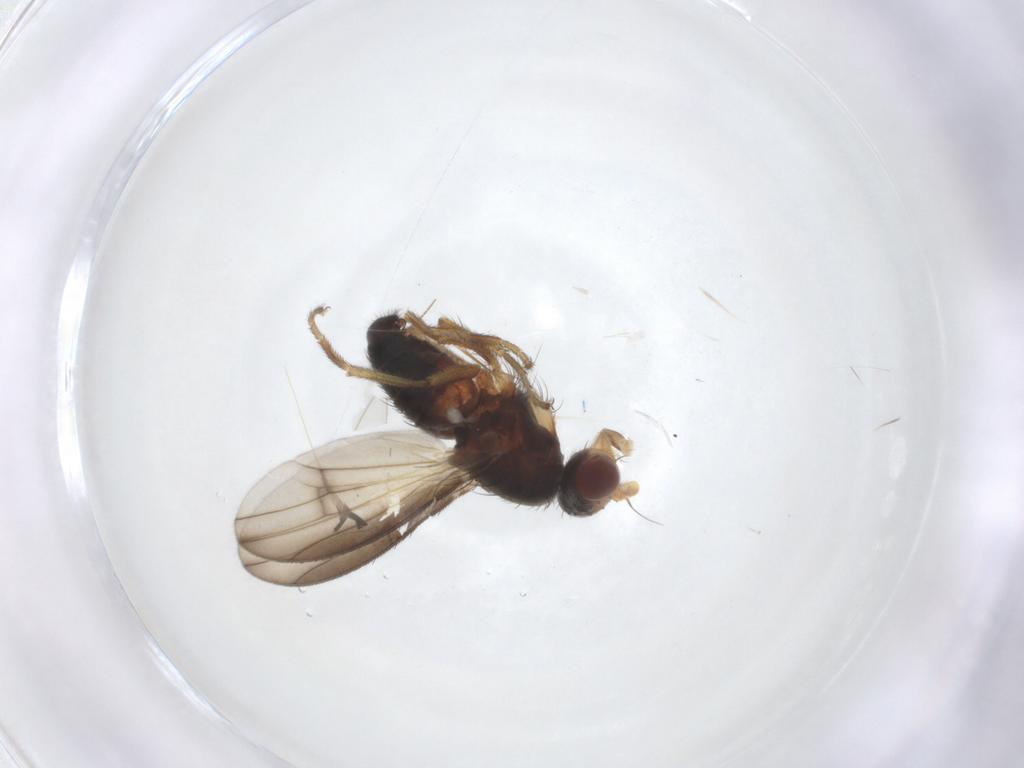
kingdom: Animalia
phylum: Arthropoda
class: Insecta
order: Diptera
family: Heleomyzidae
